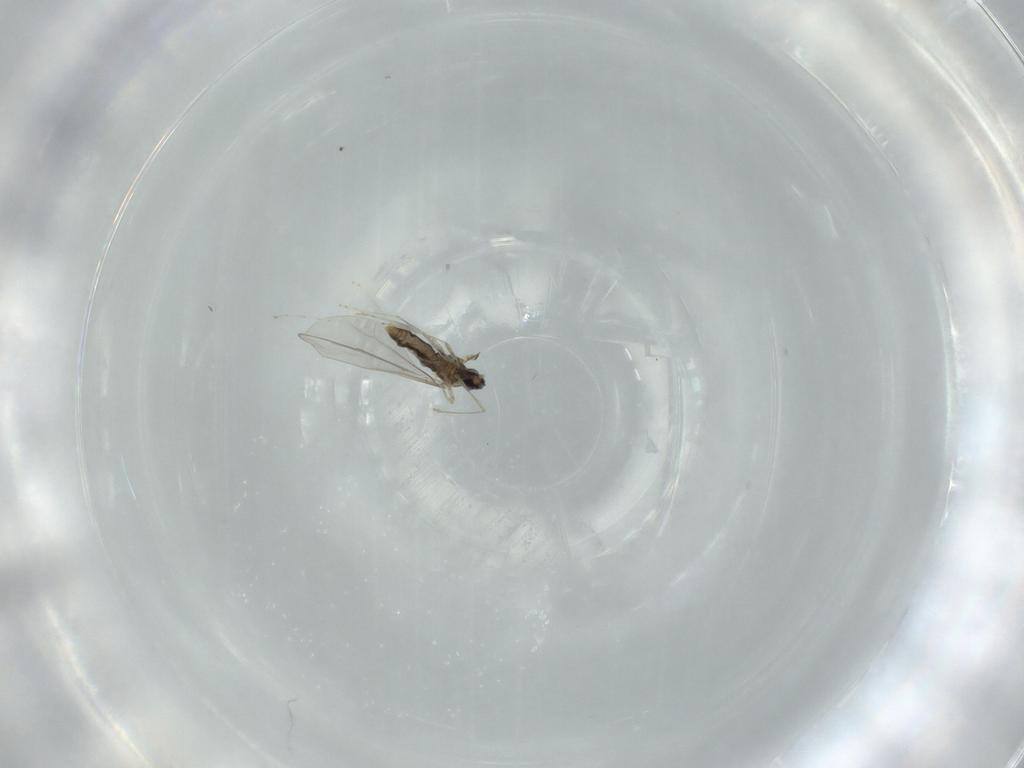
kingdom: Animalia
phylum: Arthropoda
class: Insecta
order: Diptera
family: Cecidomyiidae
